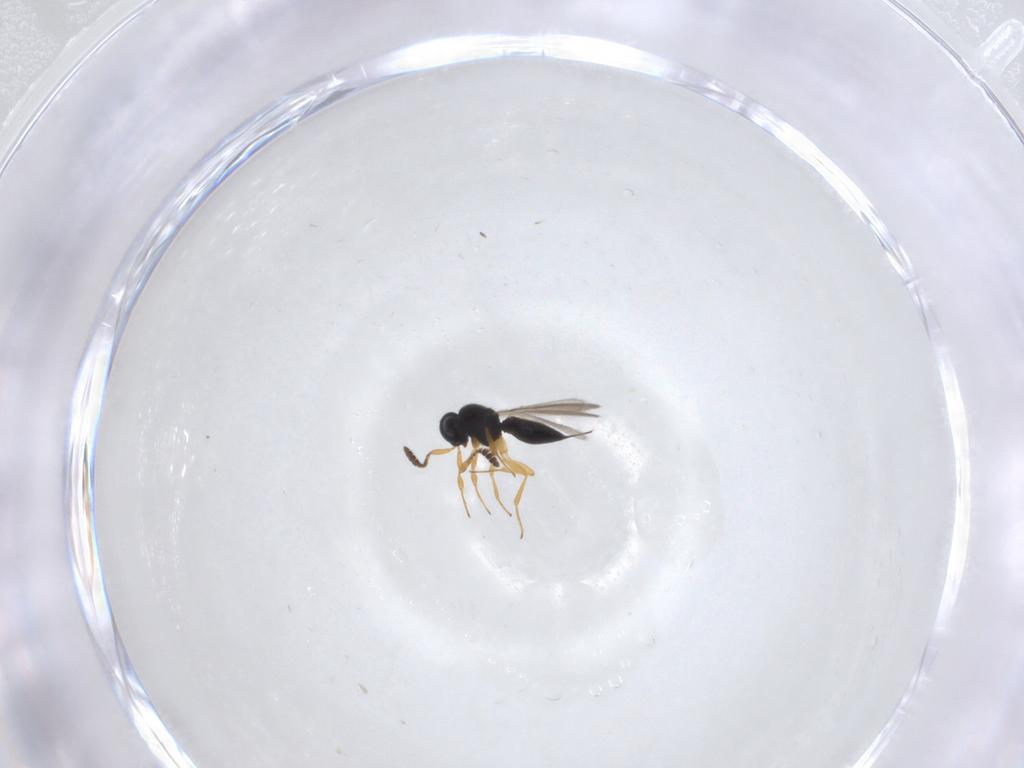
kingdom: Animalia
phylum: Arthropoda
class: Insecta
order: Hymenoptera
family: Scelionidae
